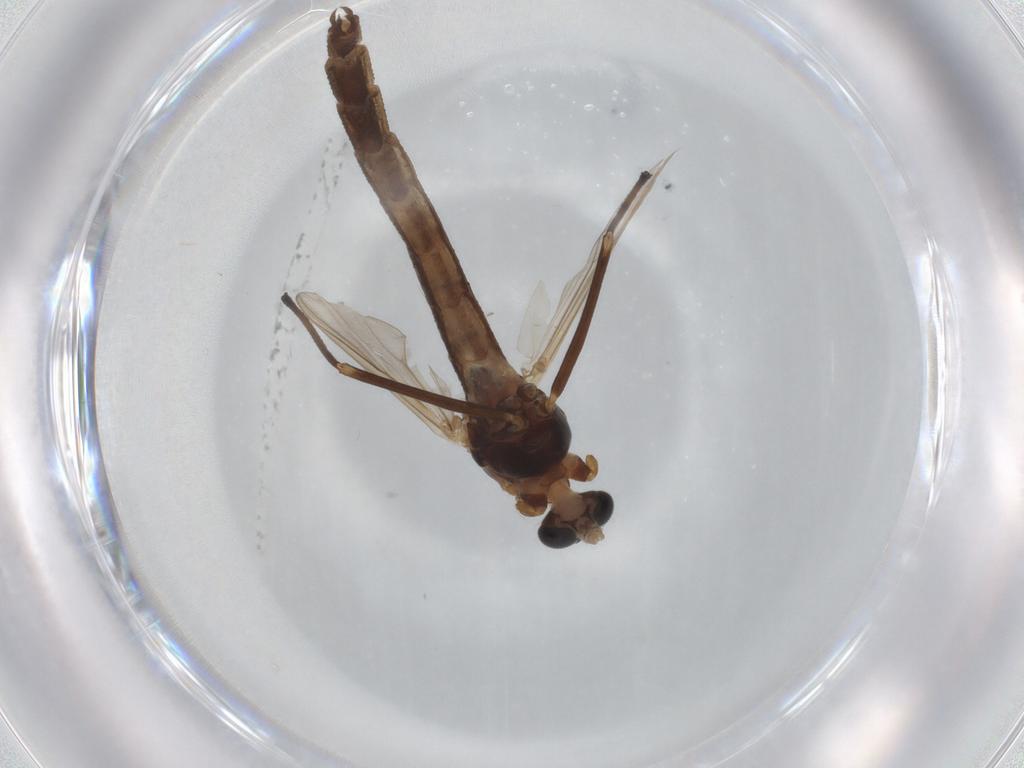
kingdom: Animalia
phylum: Arthropoda
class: Insecta
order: Diptera
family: Chironomidae
